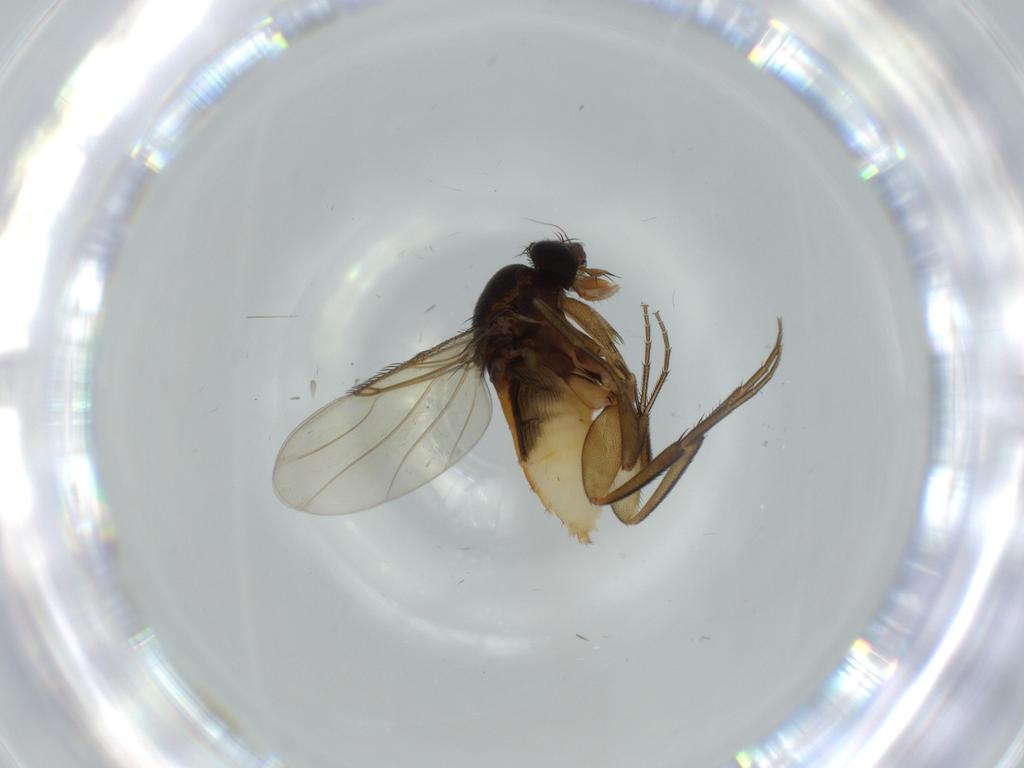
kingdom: Animalia
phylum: Arthropoda
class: Insecta
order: Diptera
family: Phoridae
